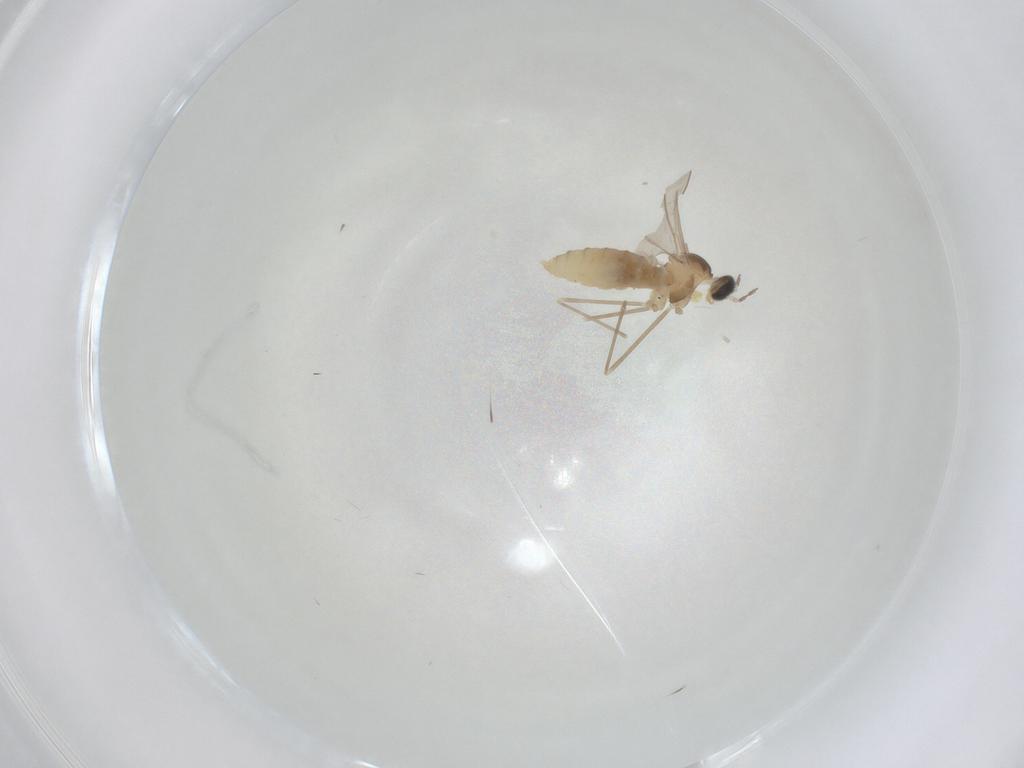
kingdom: Animalia
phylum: Arthropoda
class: Insecta
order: Diptera
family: Cecidomyiidae
